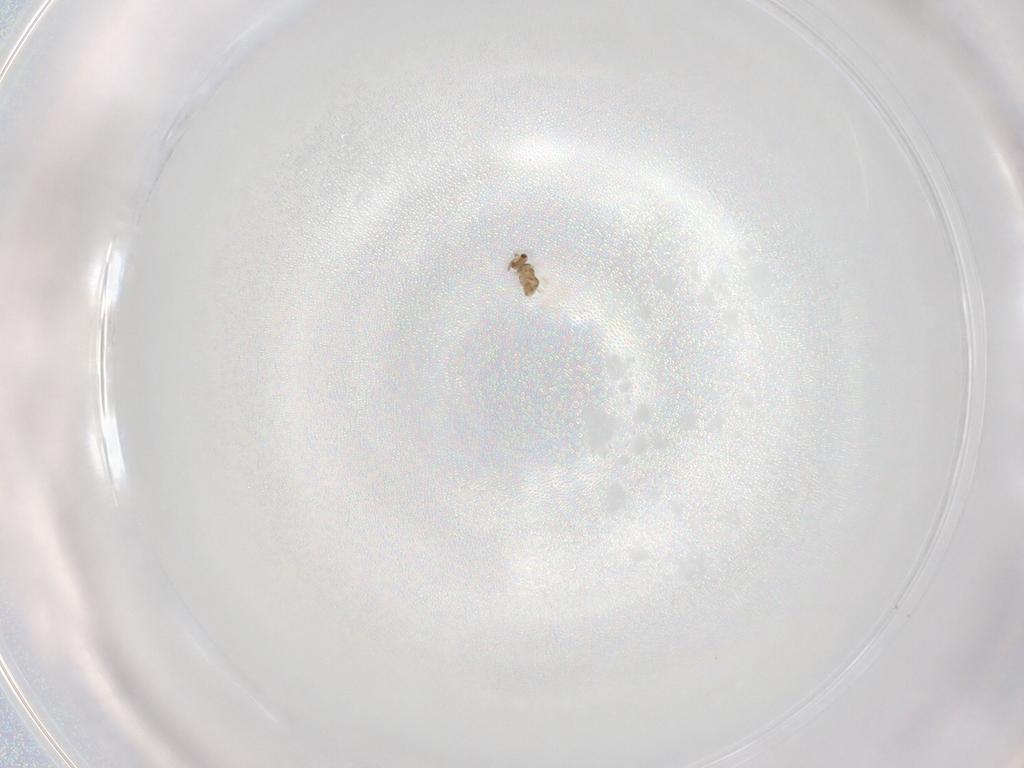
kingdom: Animalia
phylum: Arthropoda
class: Insecta
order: Hymenoptera
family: Aphelinidae
